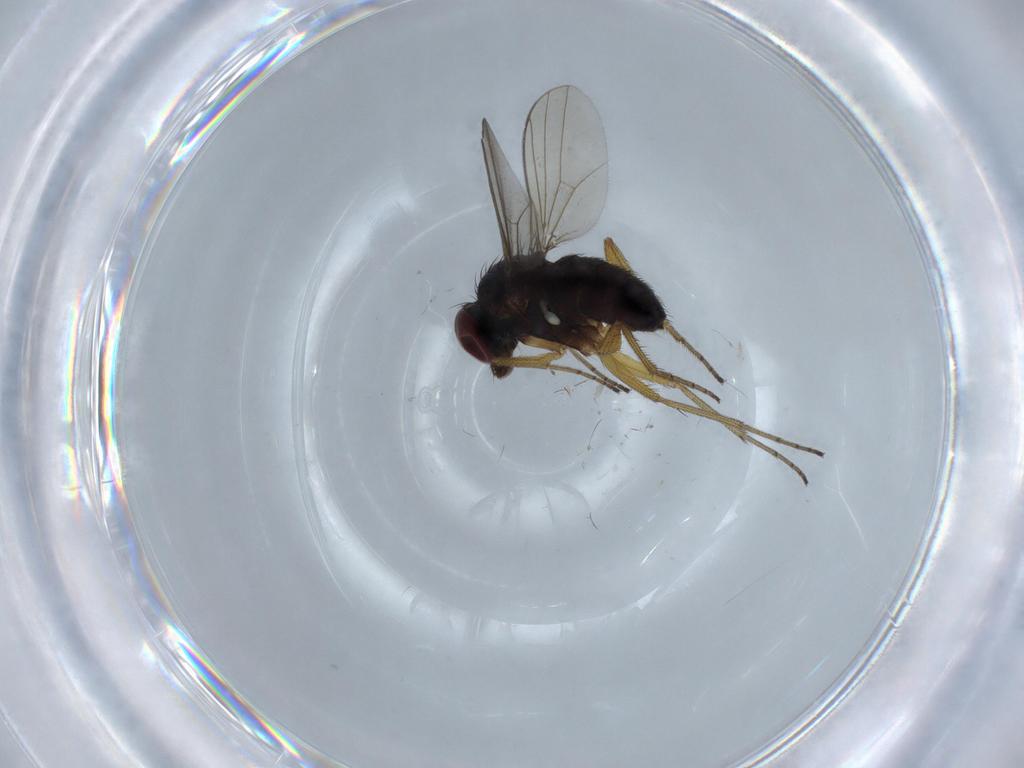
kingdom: Animalia
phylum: Arthropoda
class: Insecta
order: Diptera
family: Dolichopodidae
